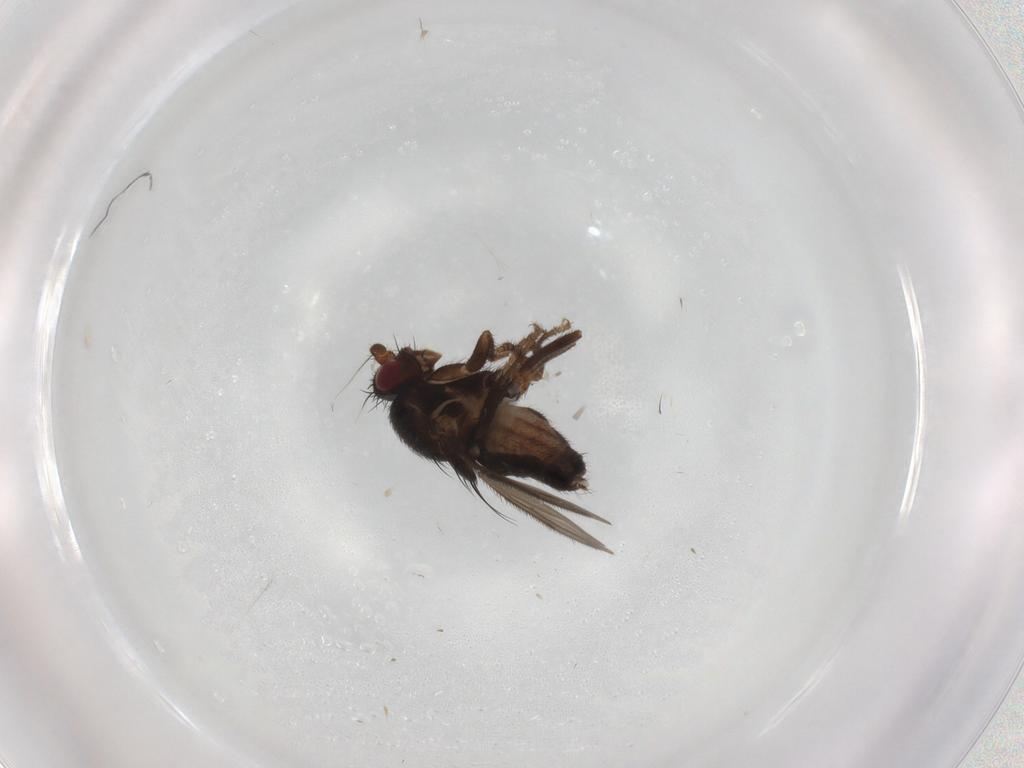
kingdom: Animalia
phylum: Arthropoda
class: Insecta
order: Diptera
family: Sphaeroceridae
